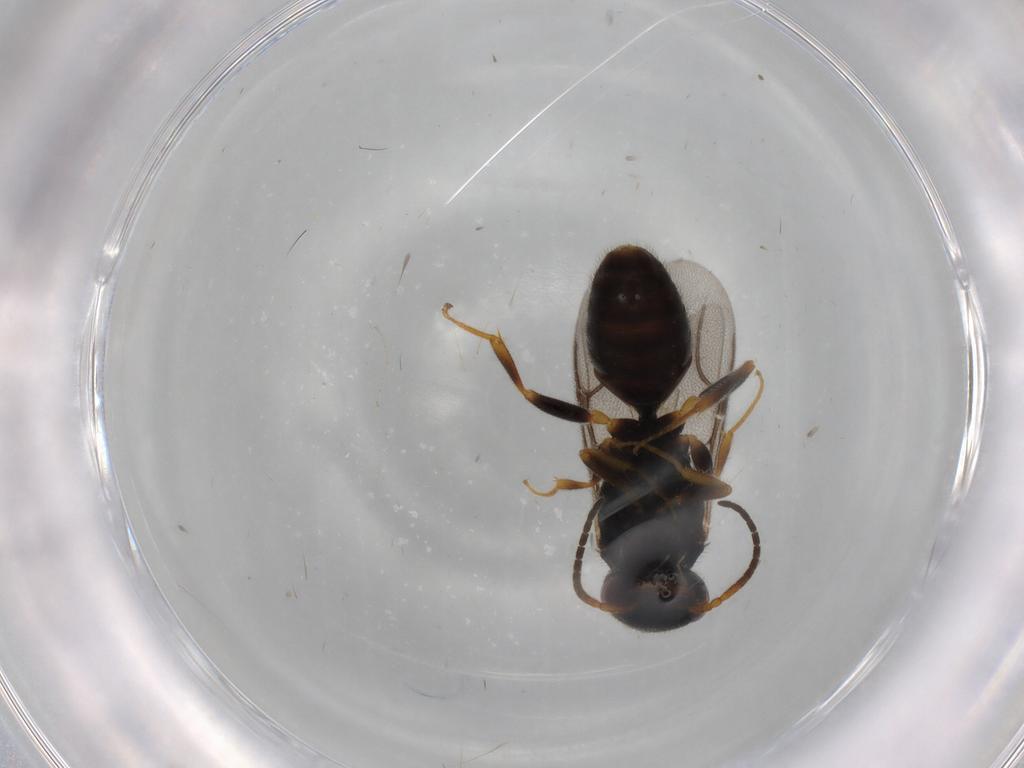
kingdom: Animalia
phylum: Arthropoda
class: Insecta
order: Hymenoptera
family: Bethylidae
